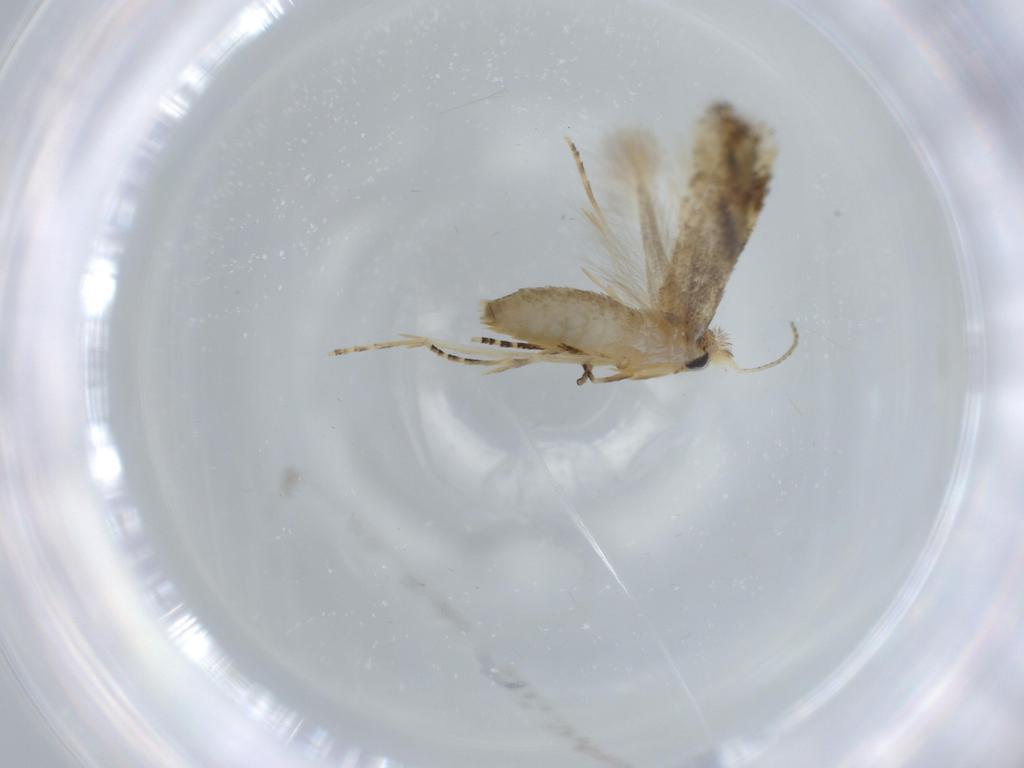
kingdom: Animalia
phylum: Arthropoda
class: Insecta
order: Lepidoptera
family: Bucculatricidae
